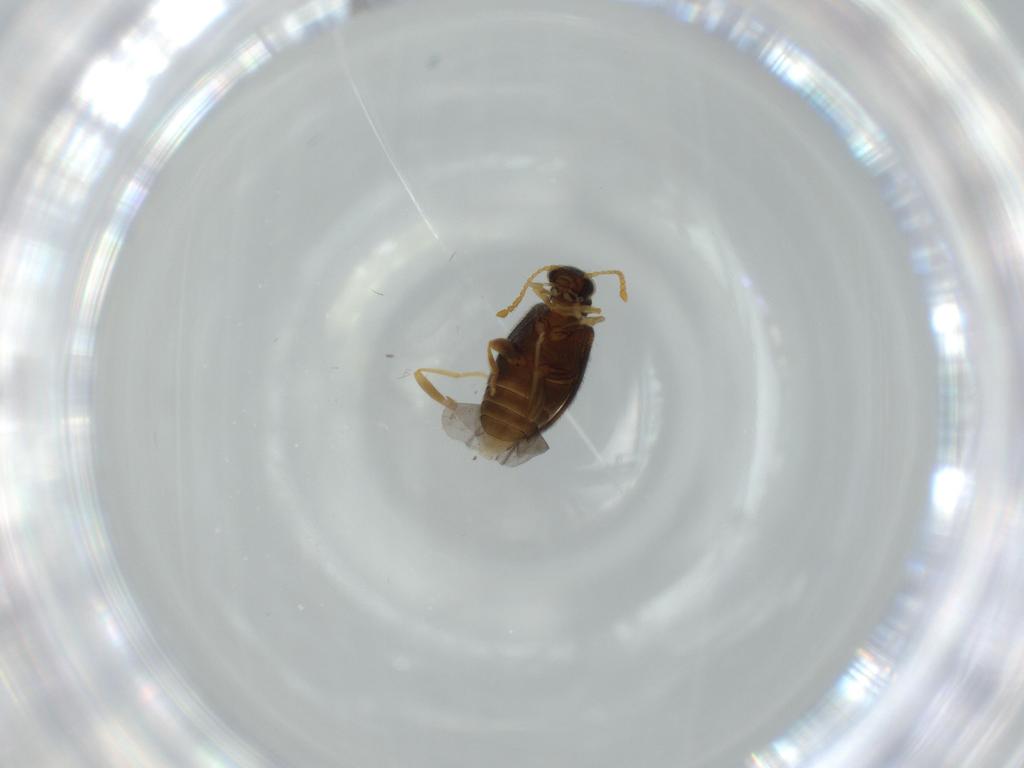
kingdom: Animalia
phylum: Arthropoda
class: Insecta
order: Coleoptera
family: Aderidae
